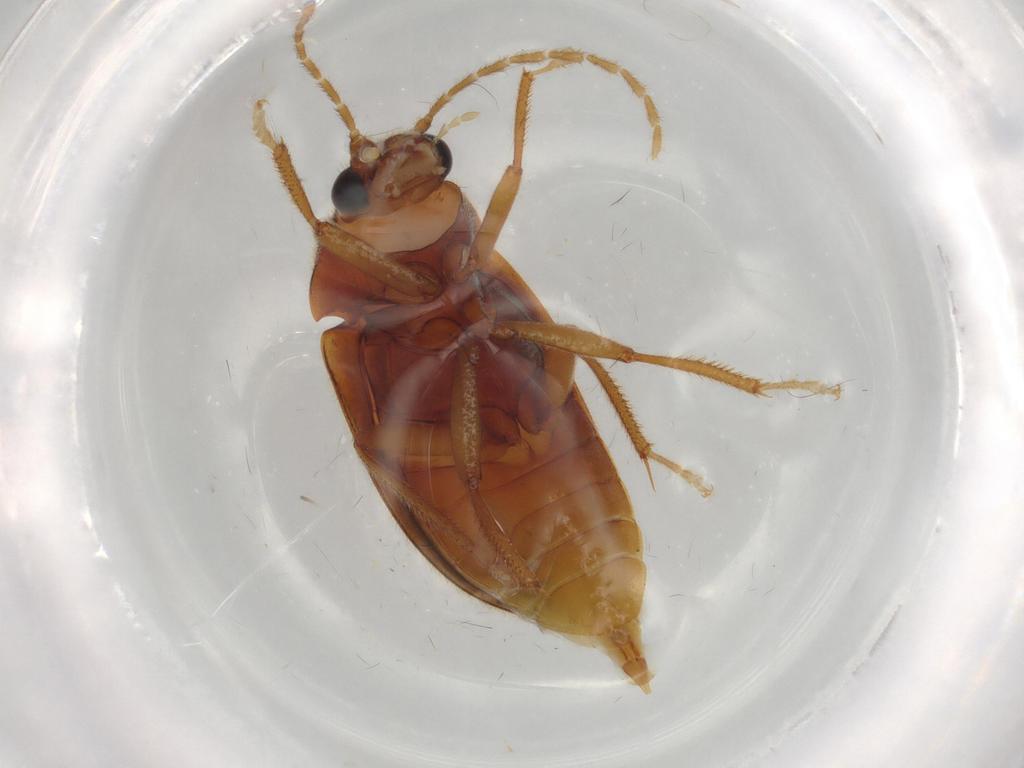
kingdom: Animalia
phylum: Arthropoda
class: Insecta
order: Coleoptera
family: Ptilodactylidae
